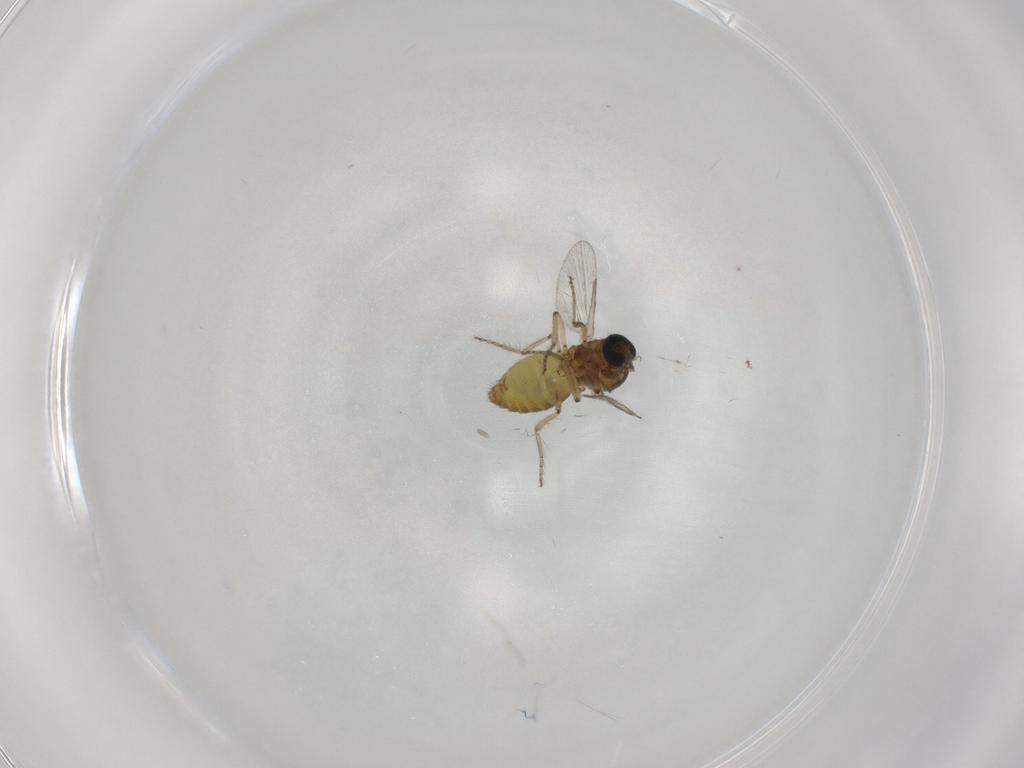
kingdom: Animalia
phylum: Arthropoda
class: Insecta
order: Diptera
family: Ceratopogonidae
